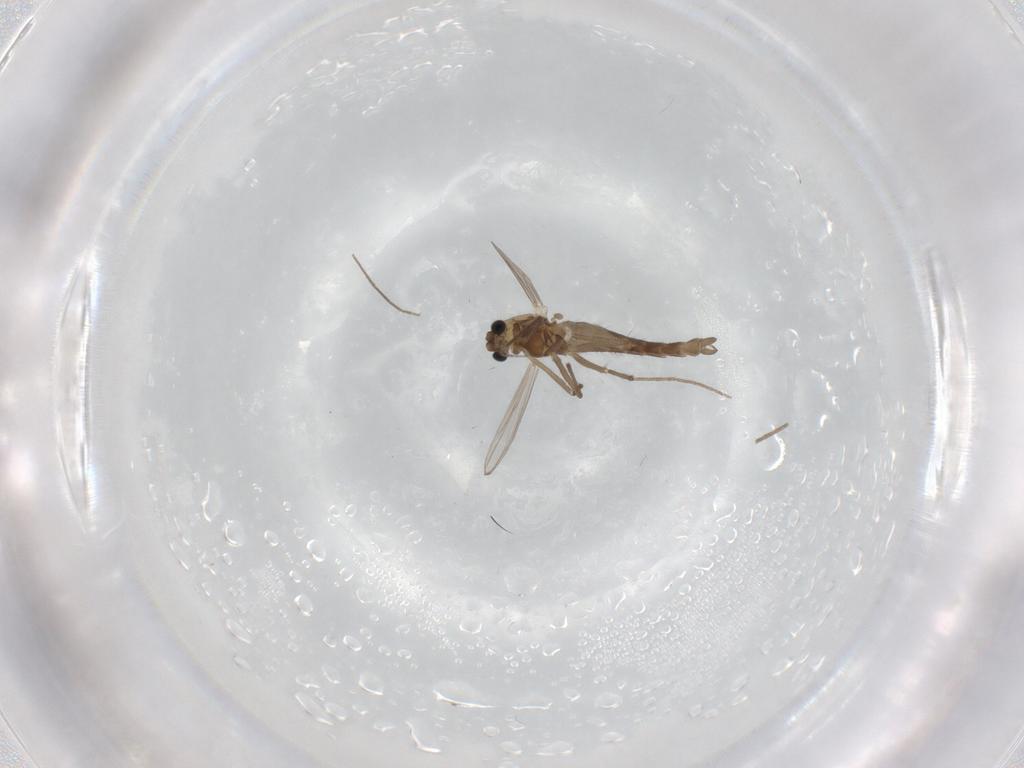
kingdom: Animalia
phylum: Arthropoda
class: Insecta
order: Diptera
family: Chironomidae
